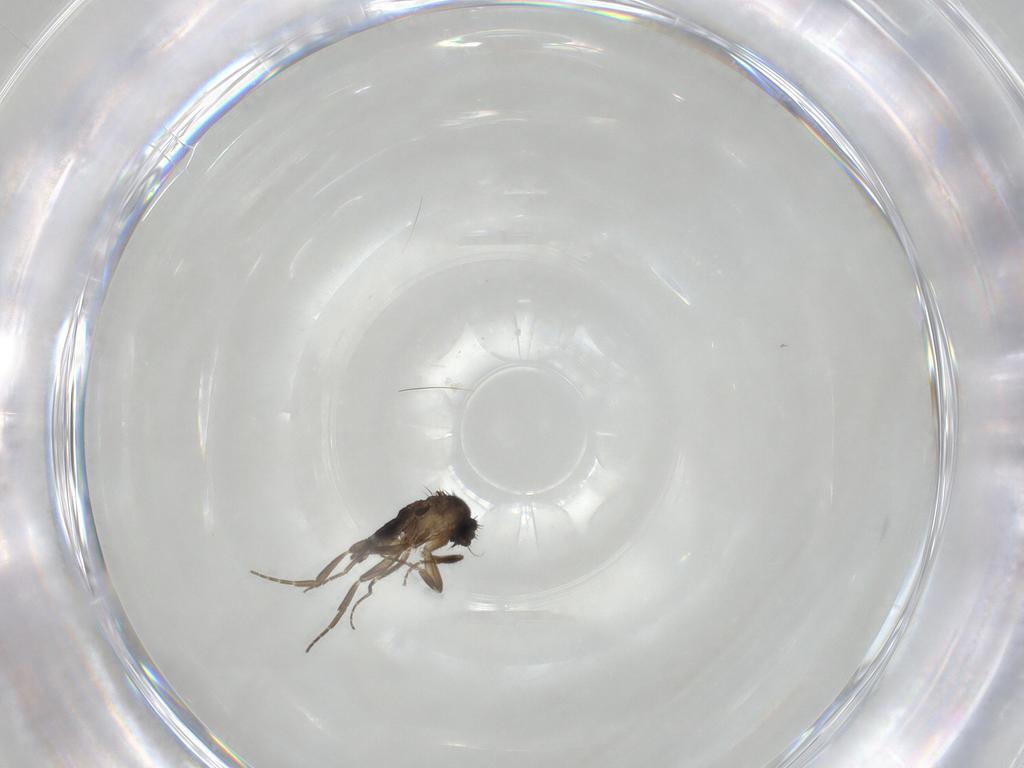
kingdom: Animalia
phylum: Arthropoda
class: Insecta
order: Diptera
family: Phoridae
